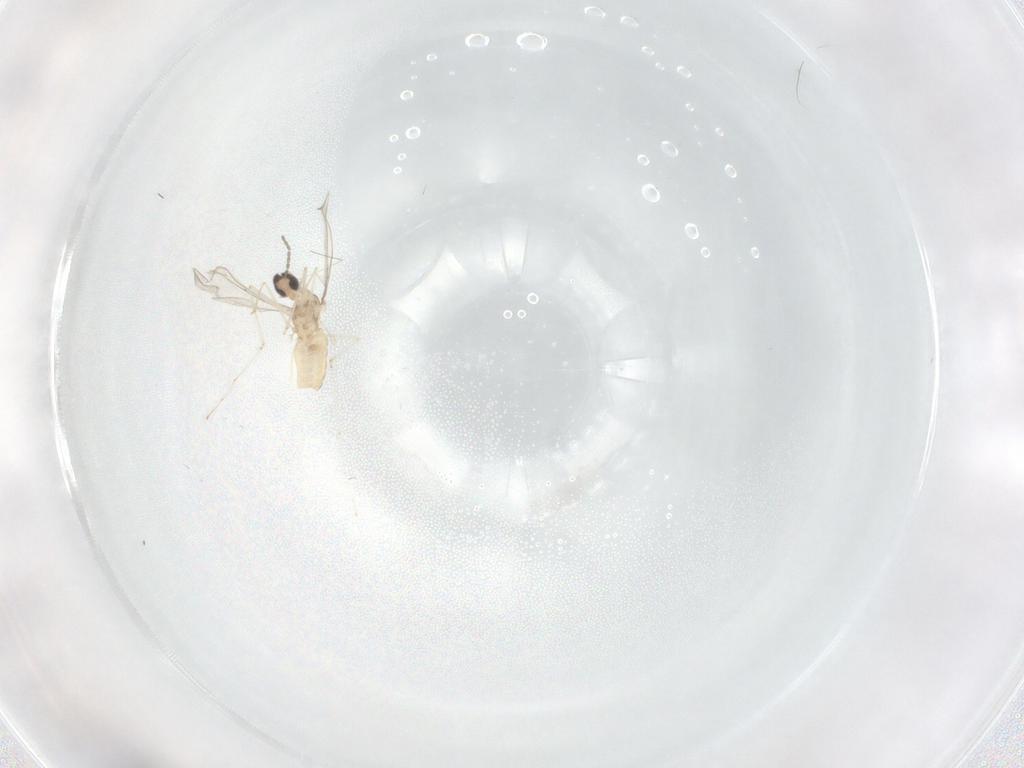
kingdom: Animalia
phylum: Arthropoda
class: Insecta
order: Diptera
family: Cecidomyiidae
